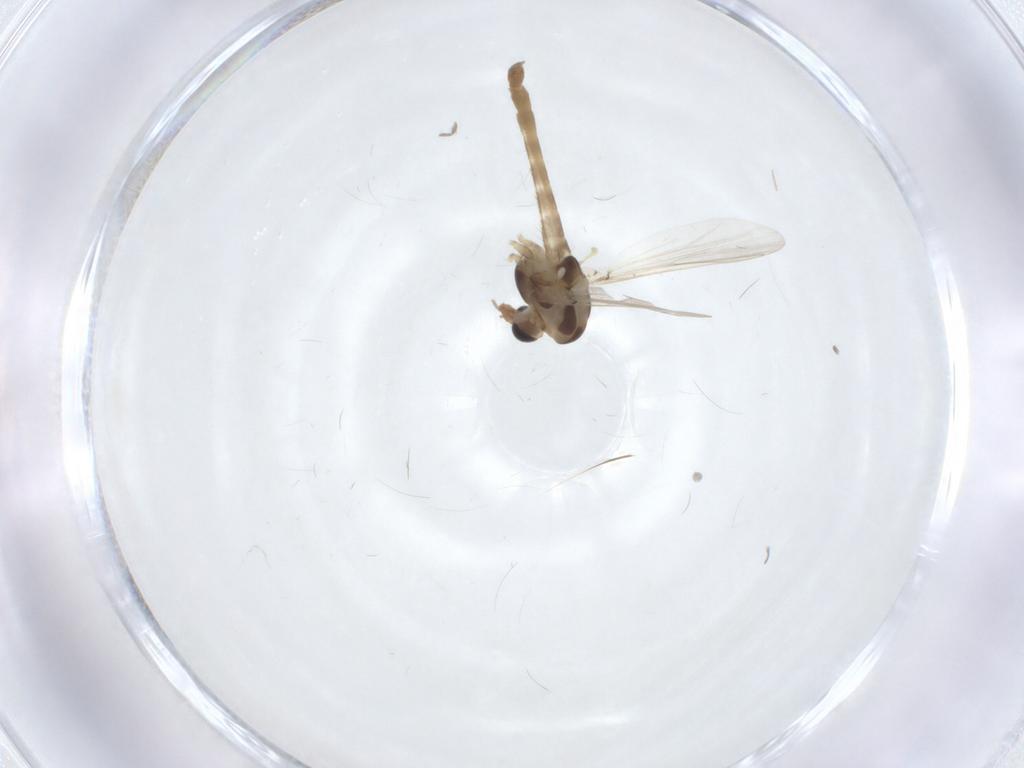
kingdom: Animalia
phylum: Arthropoda
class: Insecta
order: Diptera
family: Chironomidae
